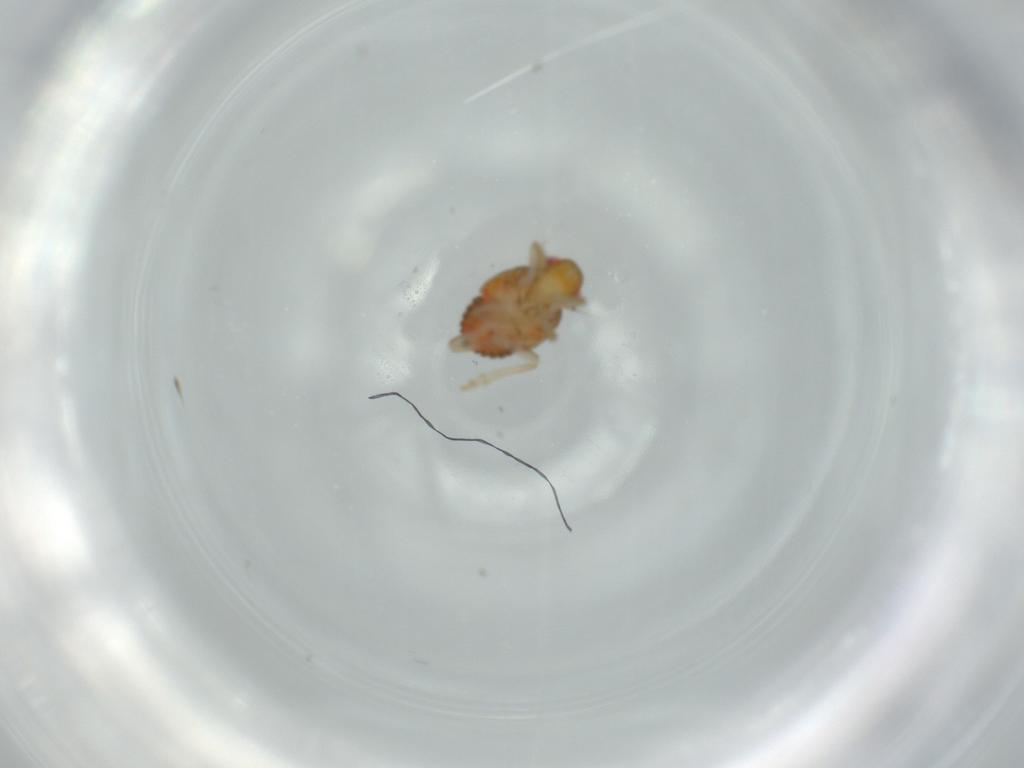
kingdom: Animalia
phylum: Arthropoda
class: Insecta
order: Hemiptera
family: Issidae
